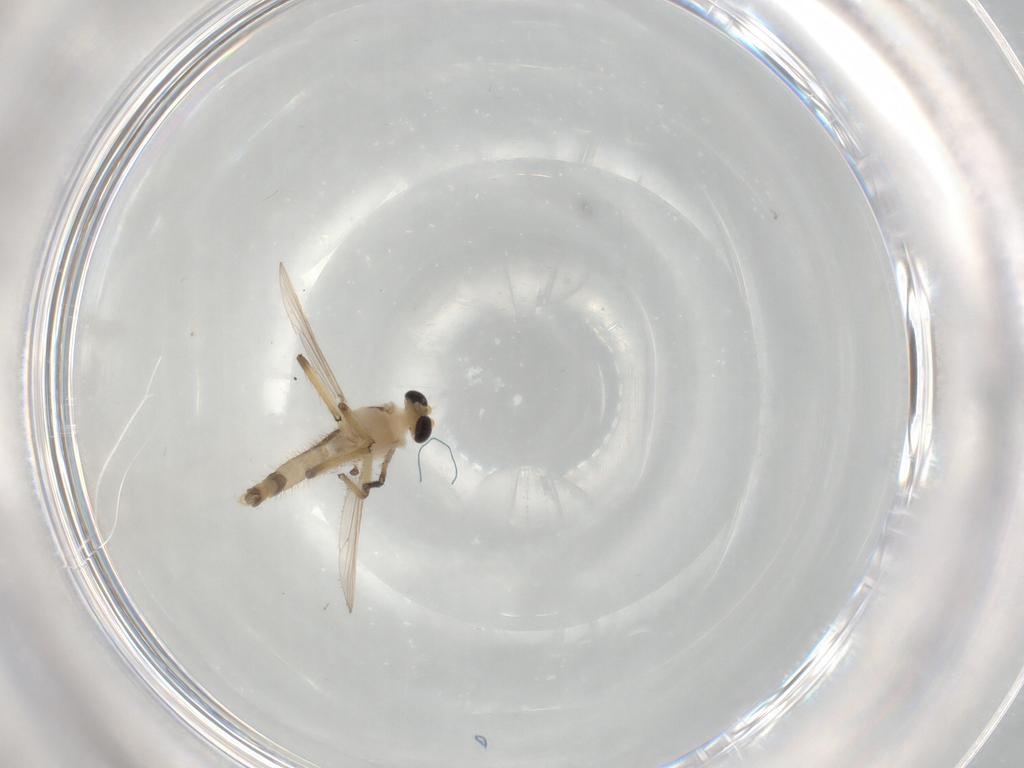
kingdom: Animalia
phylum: Arthropoda
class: Insecta
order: Diptera
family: Chironomidae
